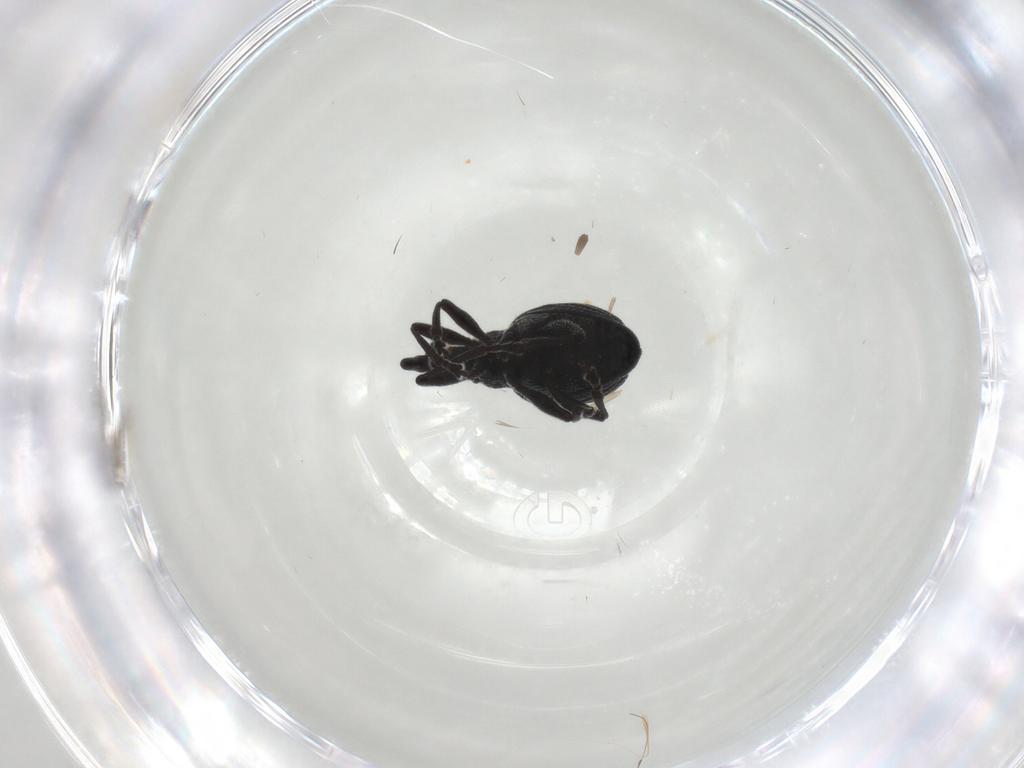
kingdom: Animalia
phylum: Arthropoda
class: Insecta
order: Coleoptera
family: Brentidae
